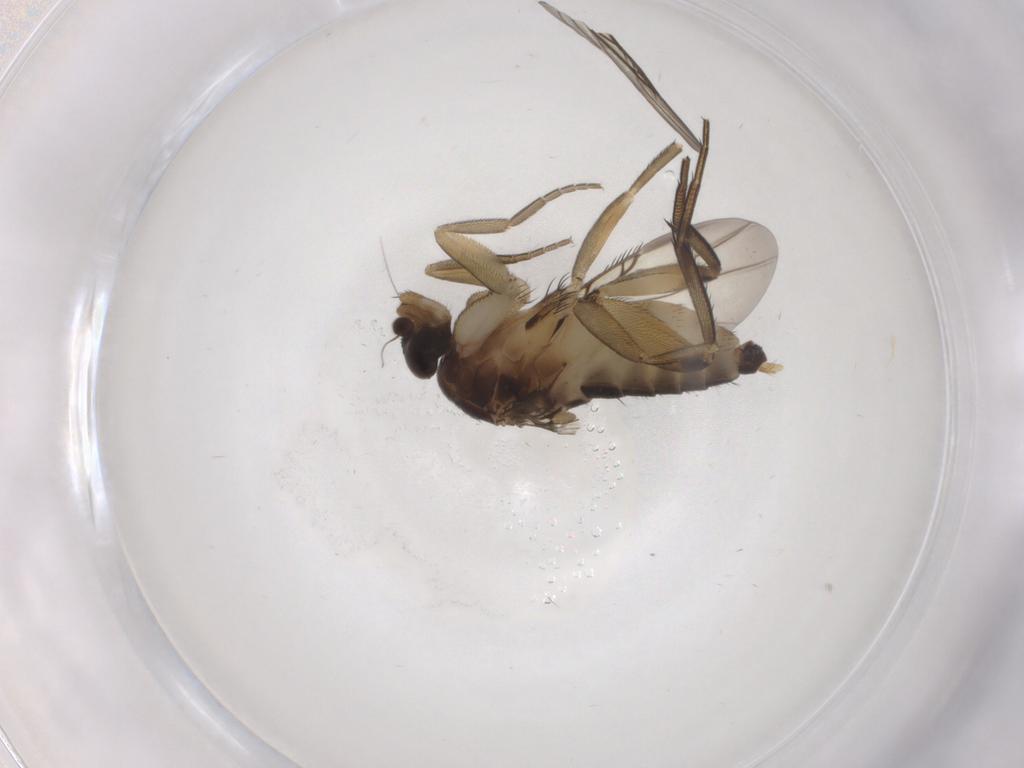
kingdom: Animalia
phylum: Arthropoda
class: Insecta
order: Diptera
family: Phoridae
